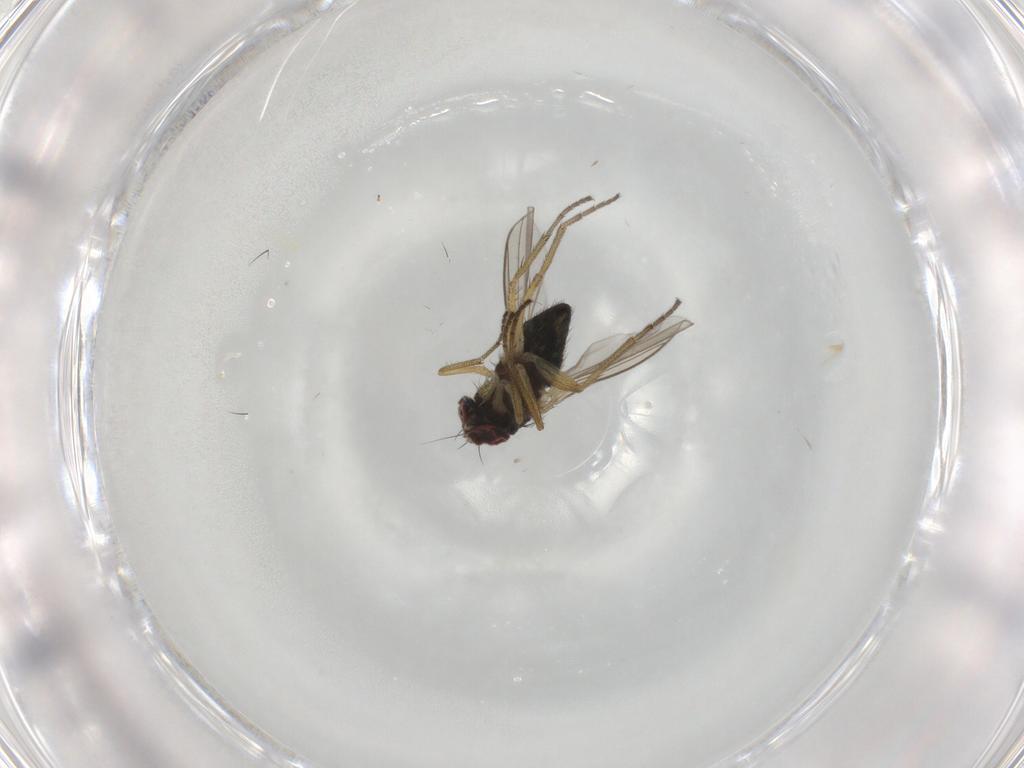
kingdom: Animalia
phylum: Arthropoda
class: Insecta
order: Diptera
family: Dolichopodidae
